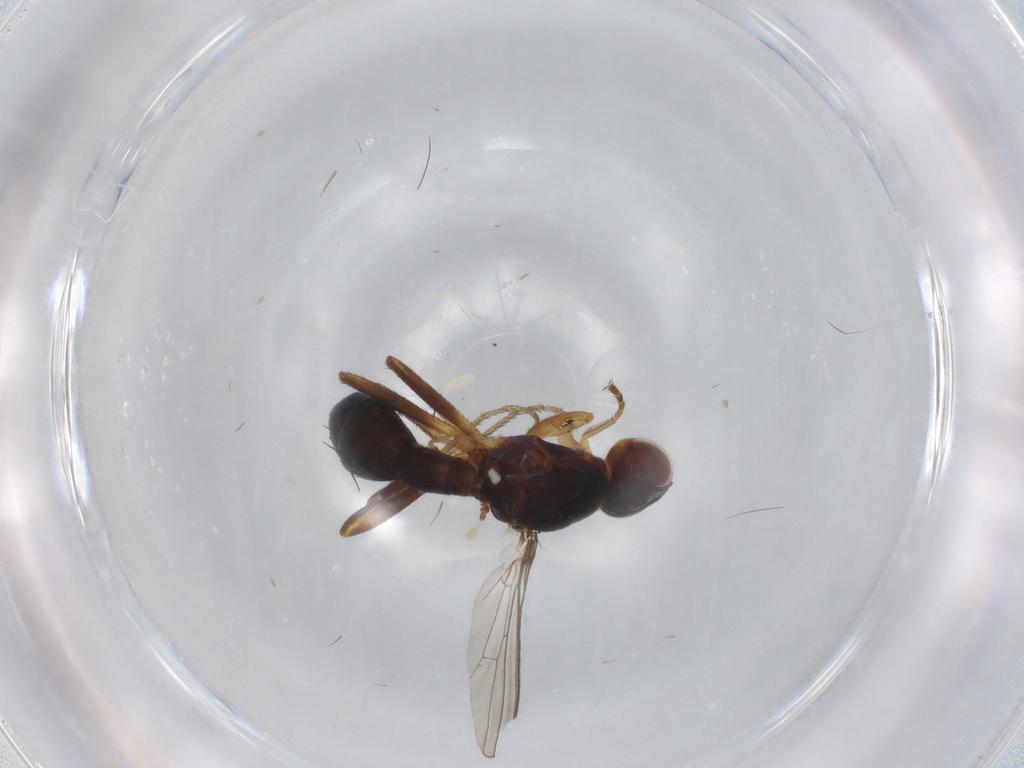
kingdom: Animalia
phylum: Arthropoda
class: Insecta
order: Diptera
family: Sepsidae
